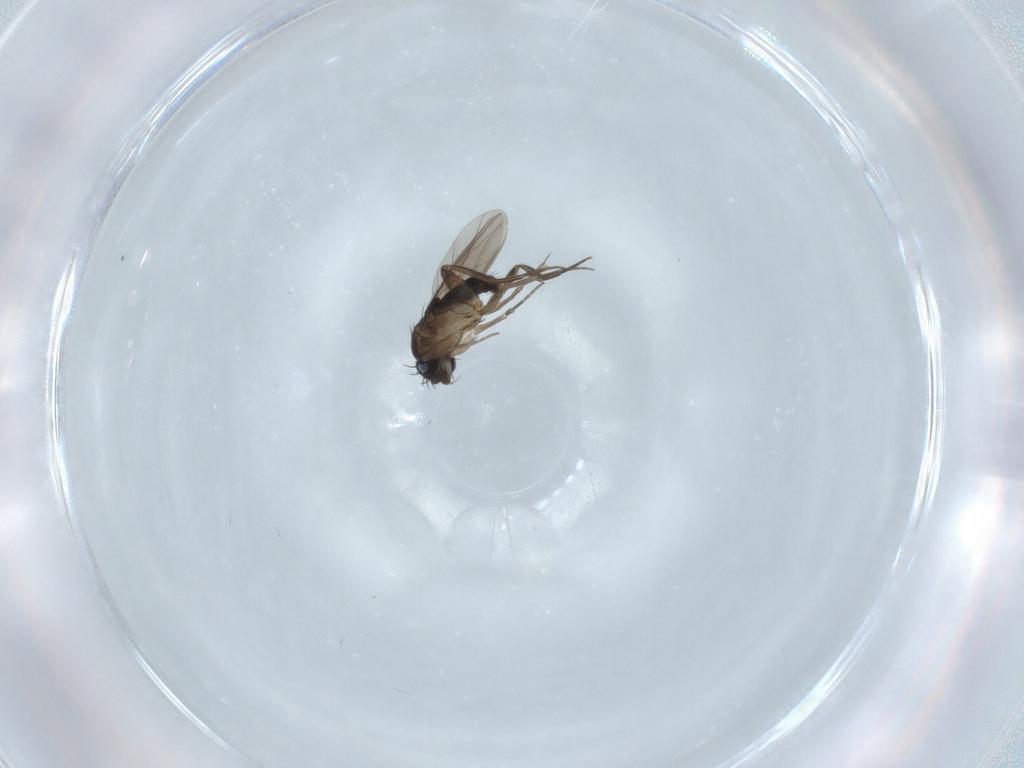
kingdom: Animalia
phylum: Arthropoda
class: Insecta
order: Diptera
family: Phoridae
